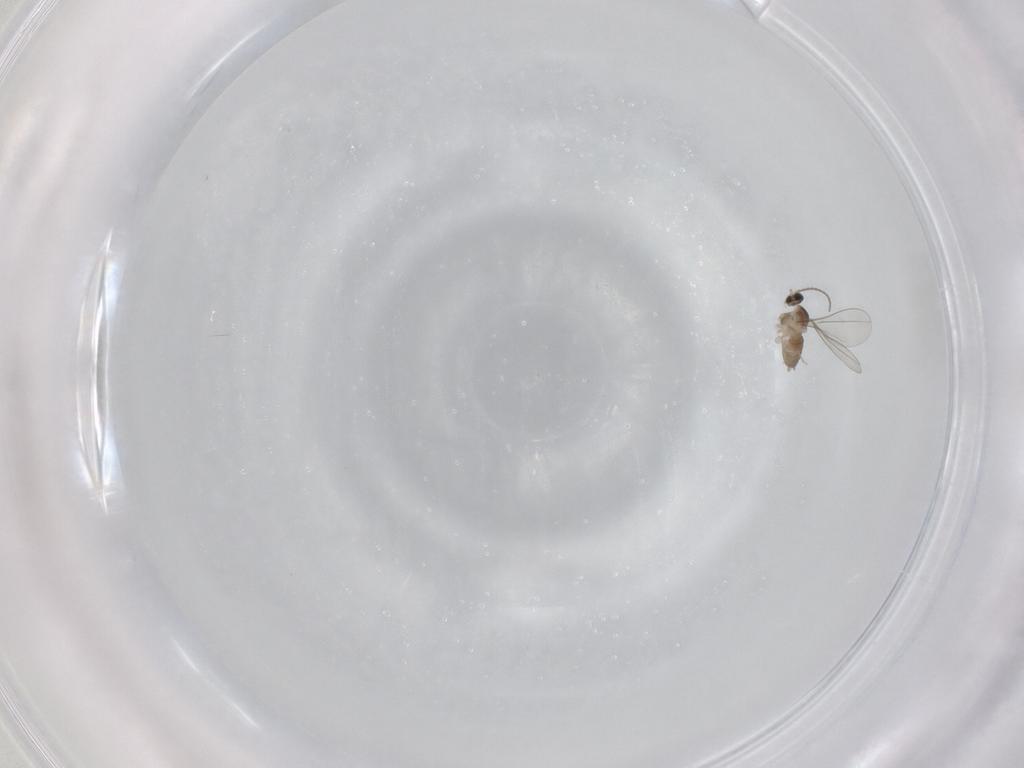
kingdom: Animalia
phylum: Arthropoda
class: Insecta
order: Diptera
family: Cecidomyiidae
